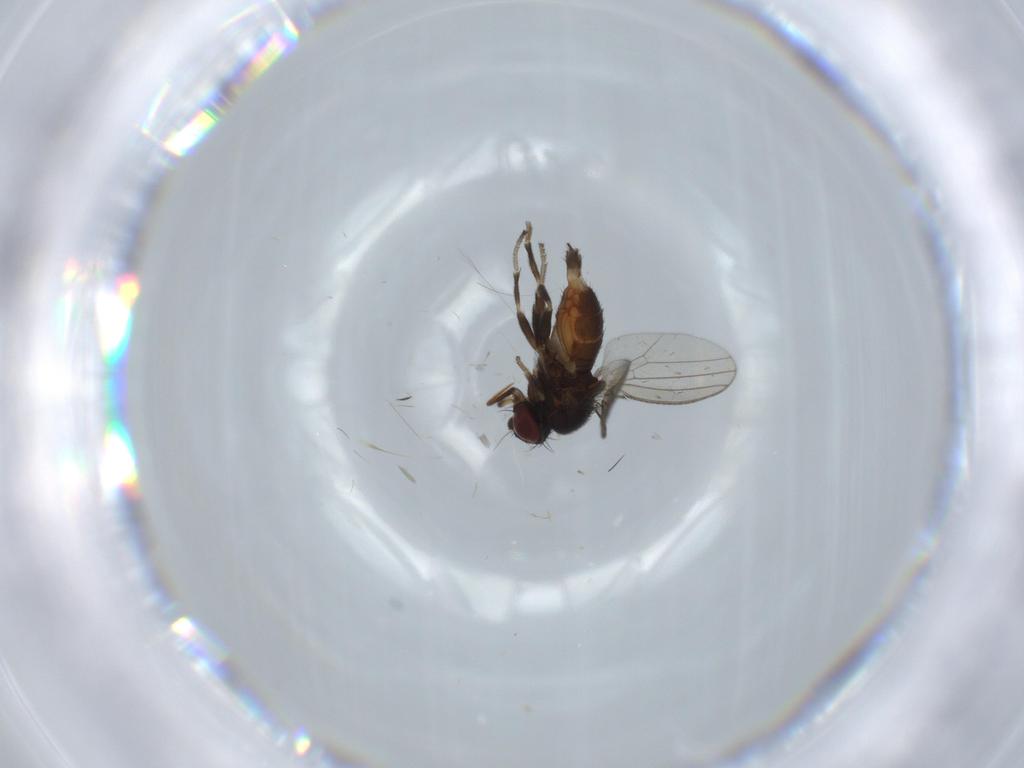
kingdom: Animalia
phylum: Arthropoda
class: Insecta
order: Diptera
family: Milichiidae
